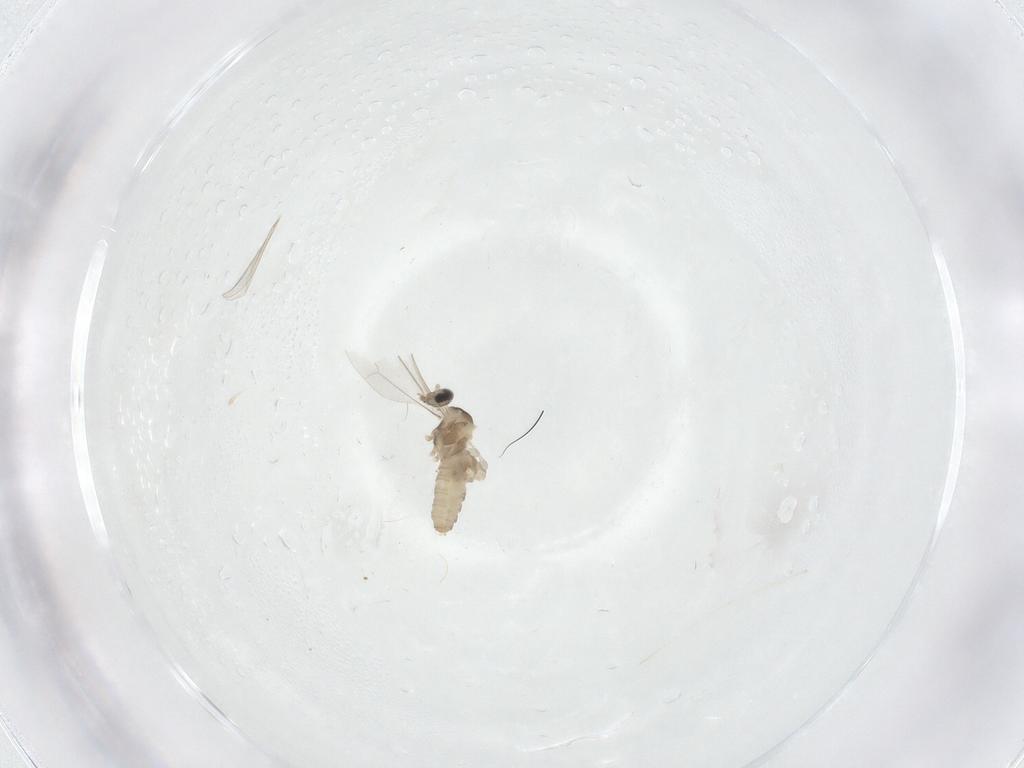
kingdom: Animalia
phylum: Arthropoda
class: Insecta
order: Diptera
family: Chironomidae
